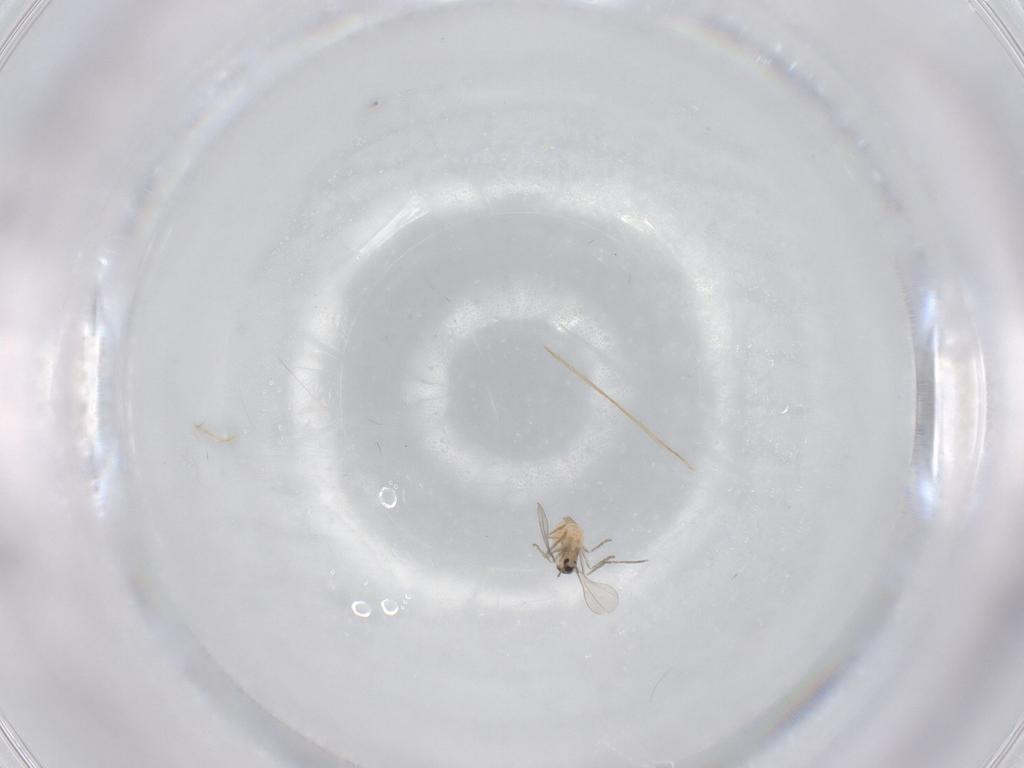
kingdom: Animalia
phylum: Arthropoda
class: Insecta
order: Diptera
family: Cecidomyiidae
